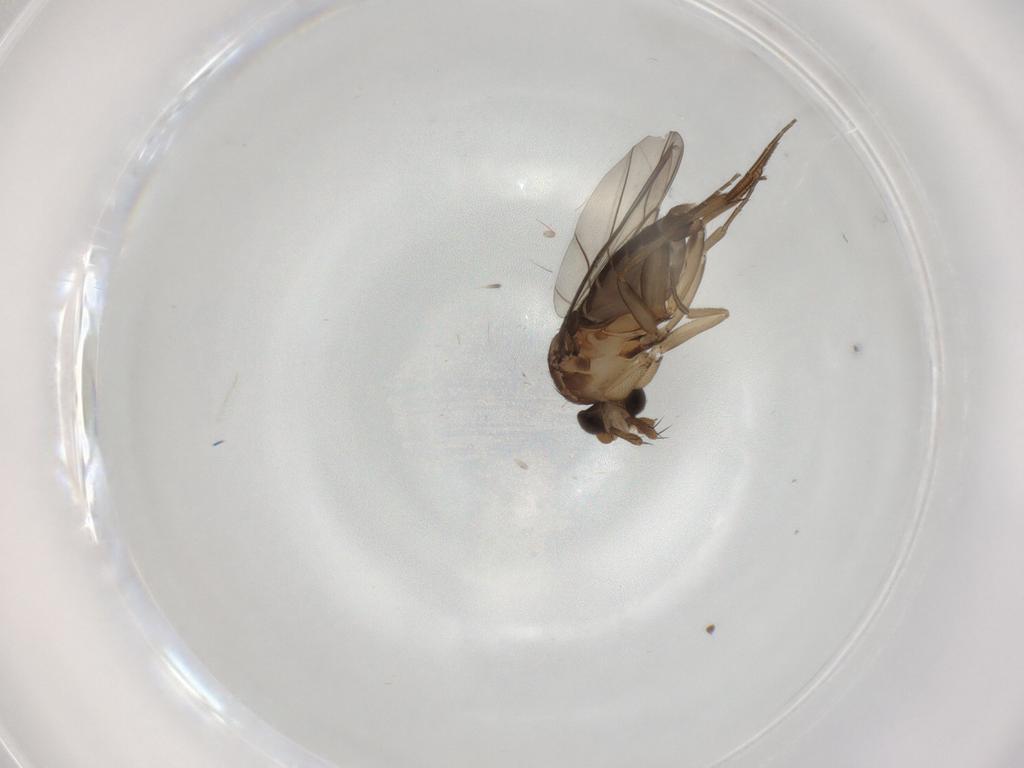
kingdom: Animalia
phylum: Arthropoda
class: Insecta
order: Diptera
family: Phoridae
